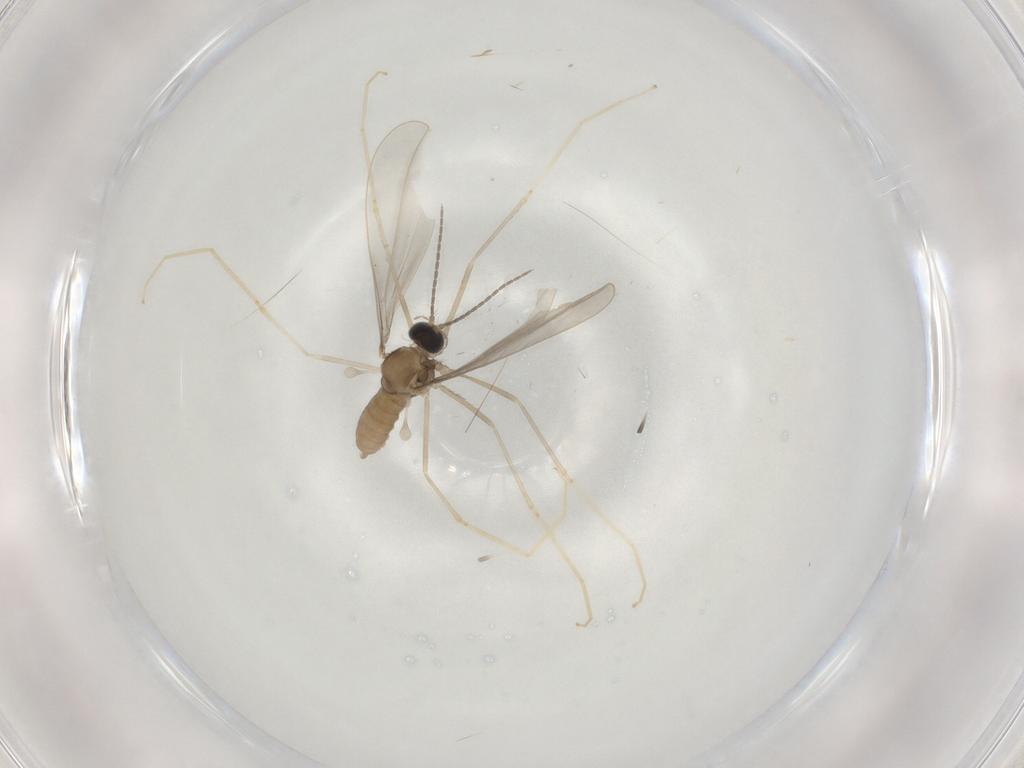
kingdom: Animalia
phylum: Arthropoda
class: Insecta
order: Diptera
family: Cecidomyiidae
